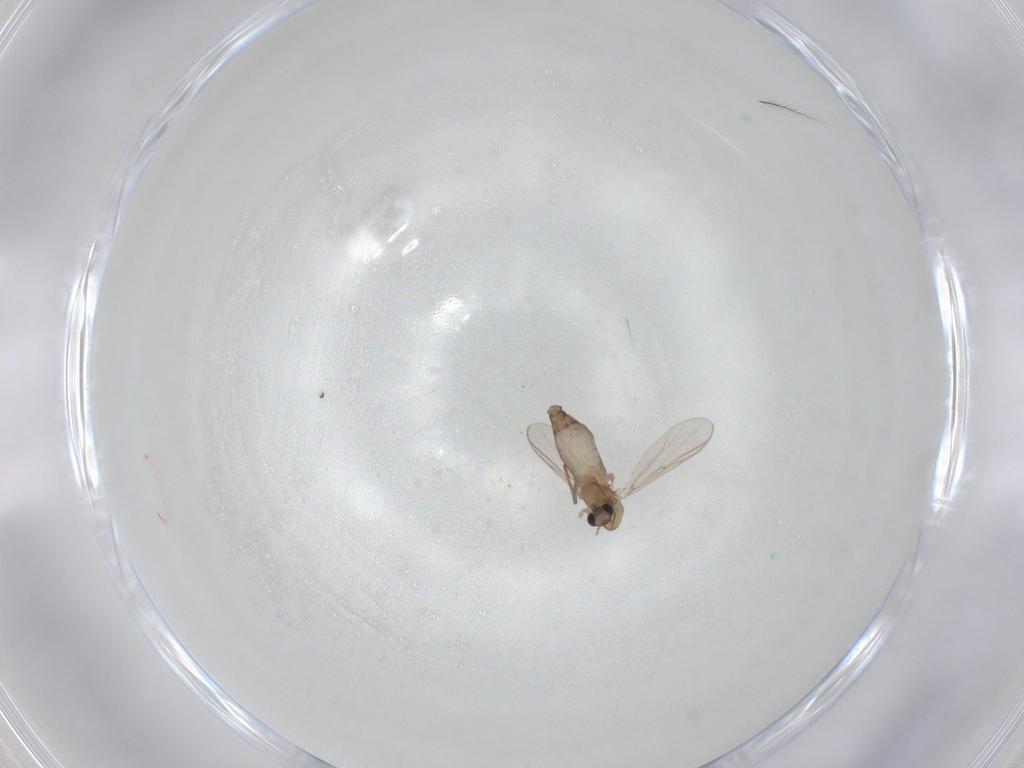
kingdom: Animalia
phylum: Arthropoda
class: Insecta
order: Diptera
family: Chironomidae
